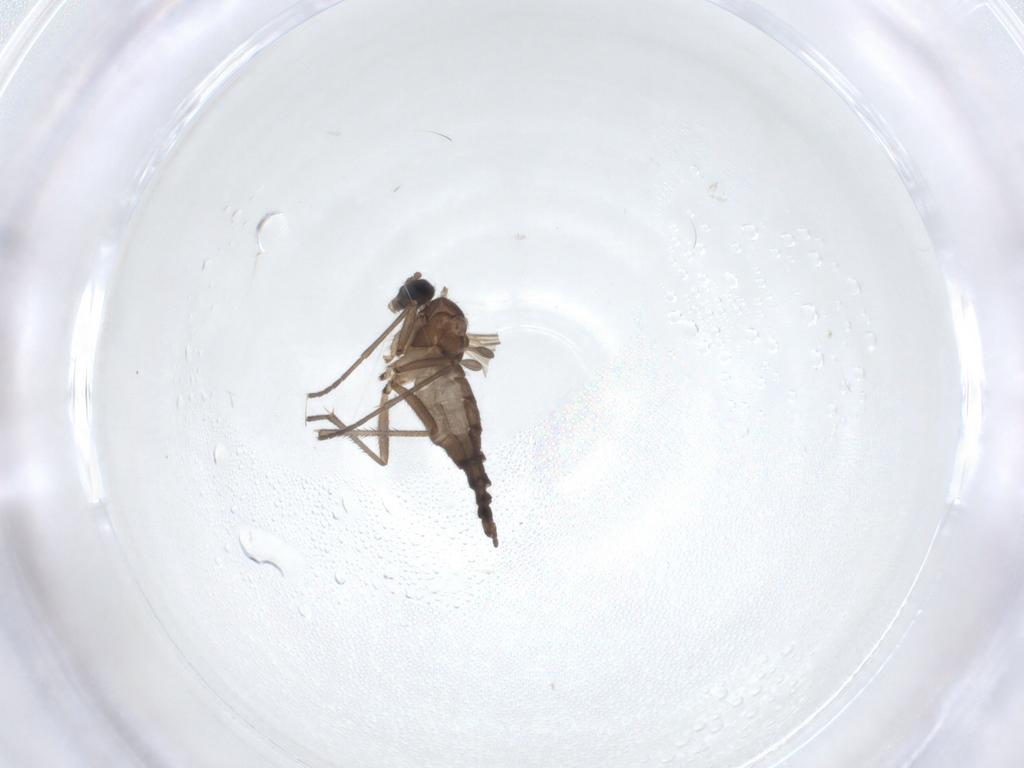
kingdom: Animalia
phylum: Arthropoda
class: Insecta
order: Diptera
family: Sciaridae
